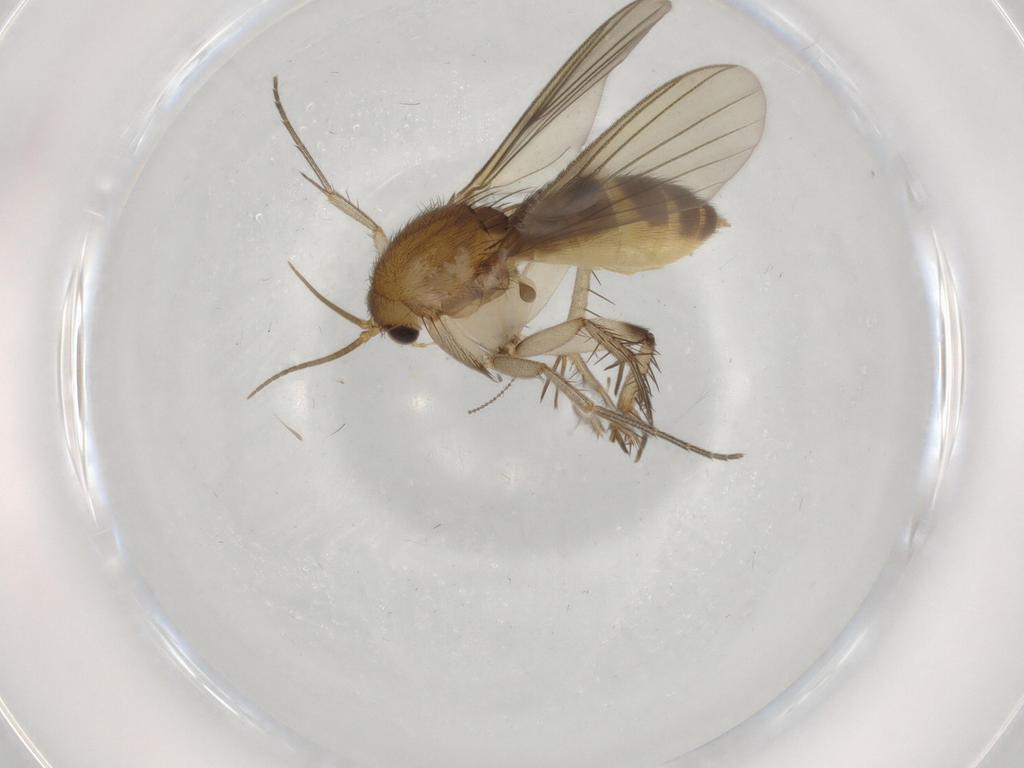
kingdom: Animalia
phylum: Arthropoda
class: Insecta
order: Diptera
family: Mycetophilidae
